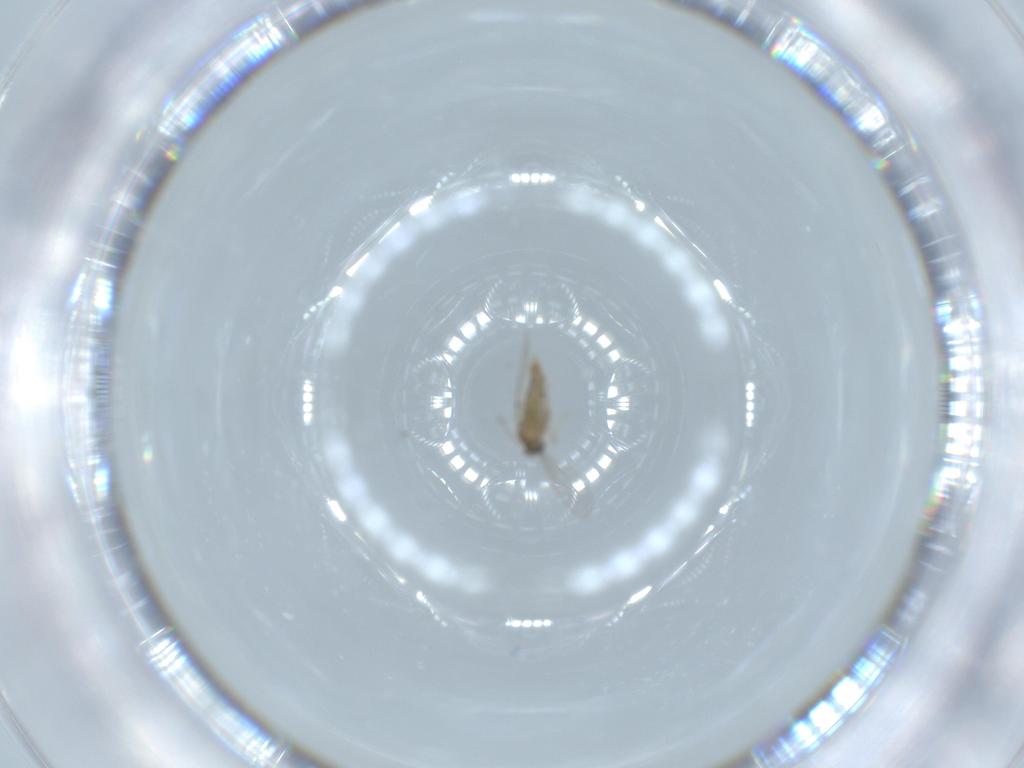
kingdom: Animalia
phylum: Arthropoda
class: Insecta
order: Diptera
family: Cecidomyiidae
